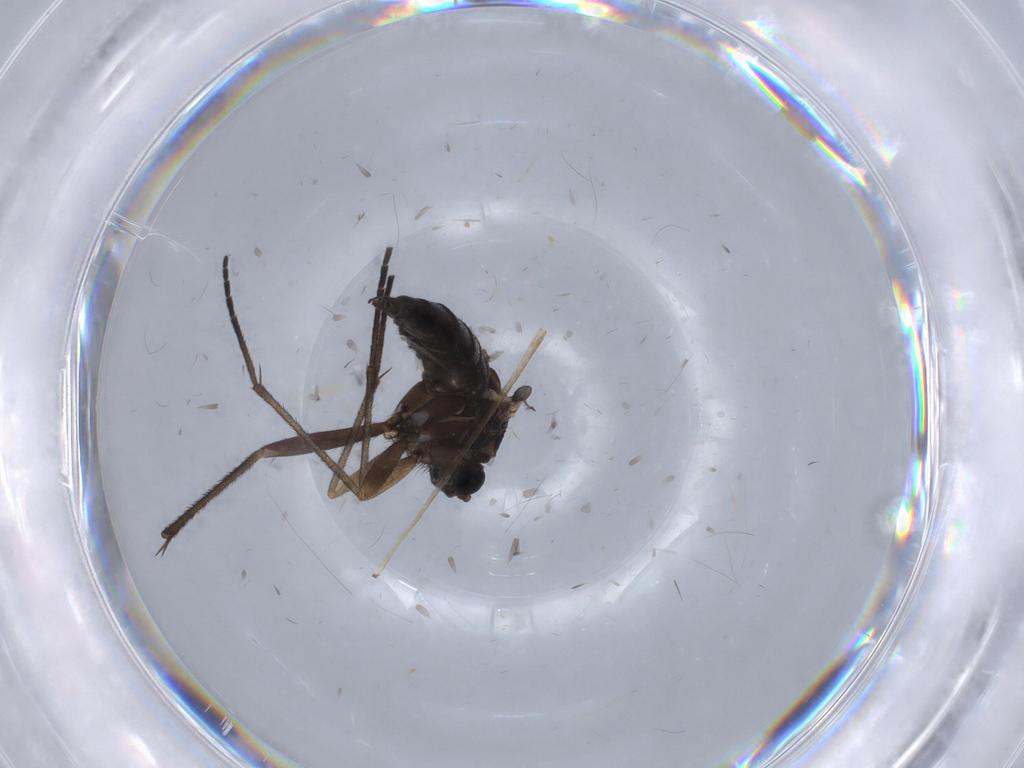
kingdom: Animalia
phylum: Arthropoda
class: Insecta
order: Diptera
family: Sciaridae
